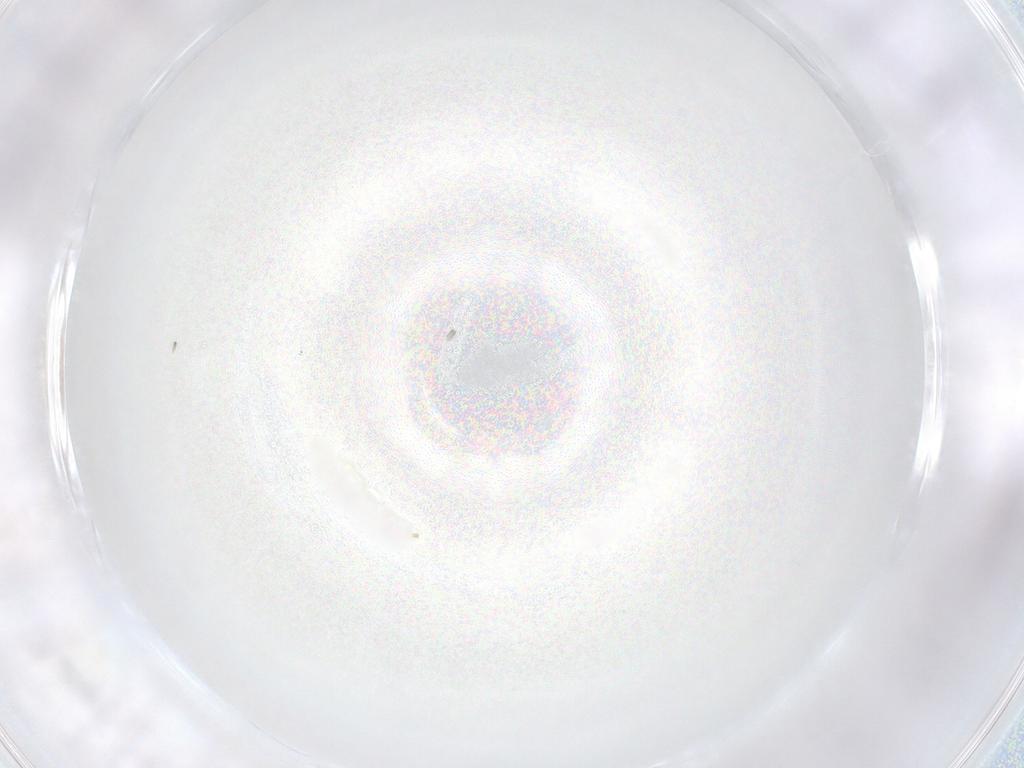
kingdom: Animalia
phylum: Arthropoda
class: Arachnida
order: Trombidiformes
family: Eupodidae
